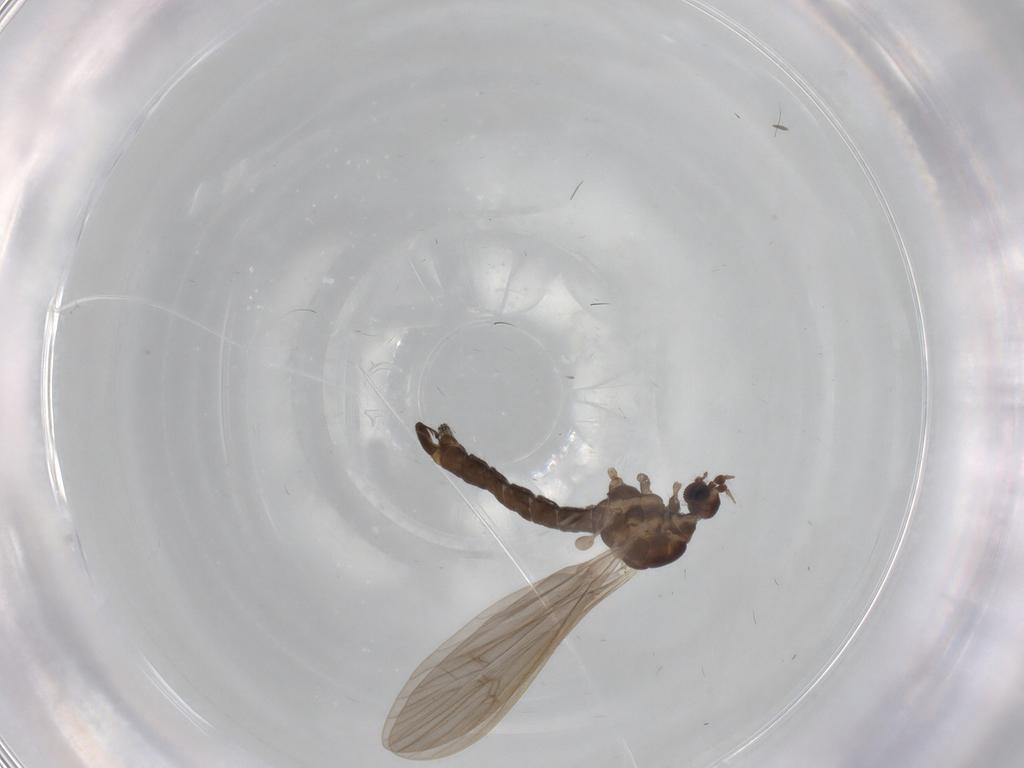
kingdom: Animalia
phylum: Arthropoda
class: Insecta
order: Diptera
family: Limoniidae
